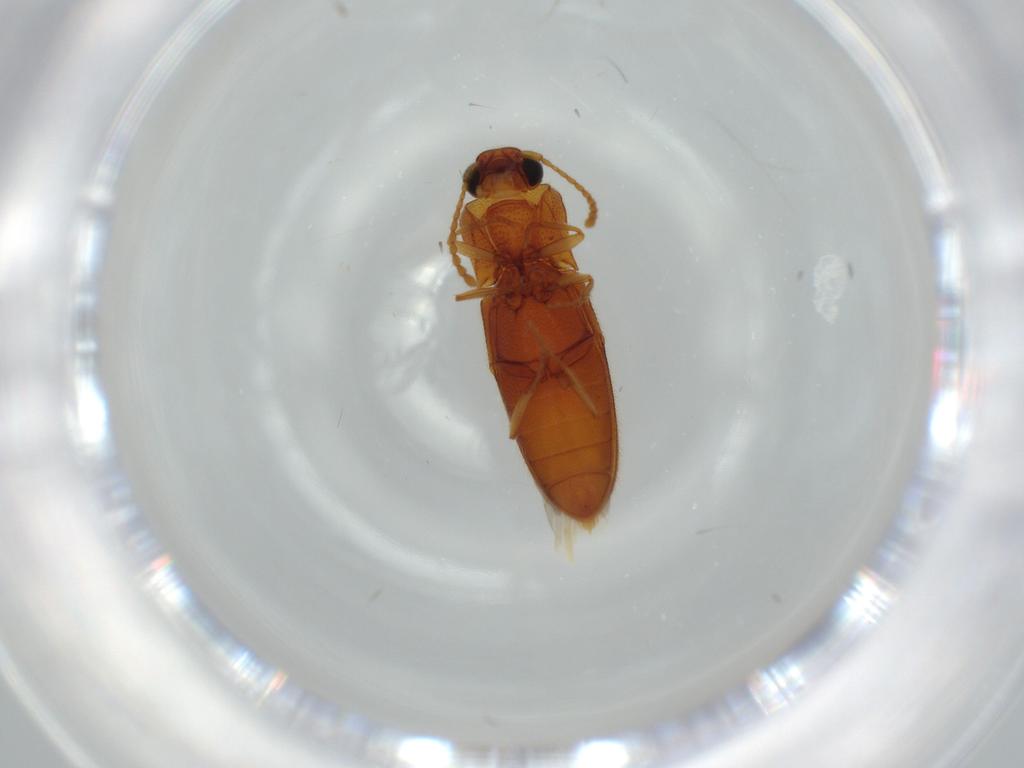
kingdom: Animalia
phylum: Arthropoda
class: Insecta
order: Coleoptera
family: Elateridae
